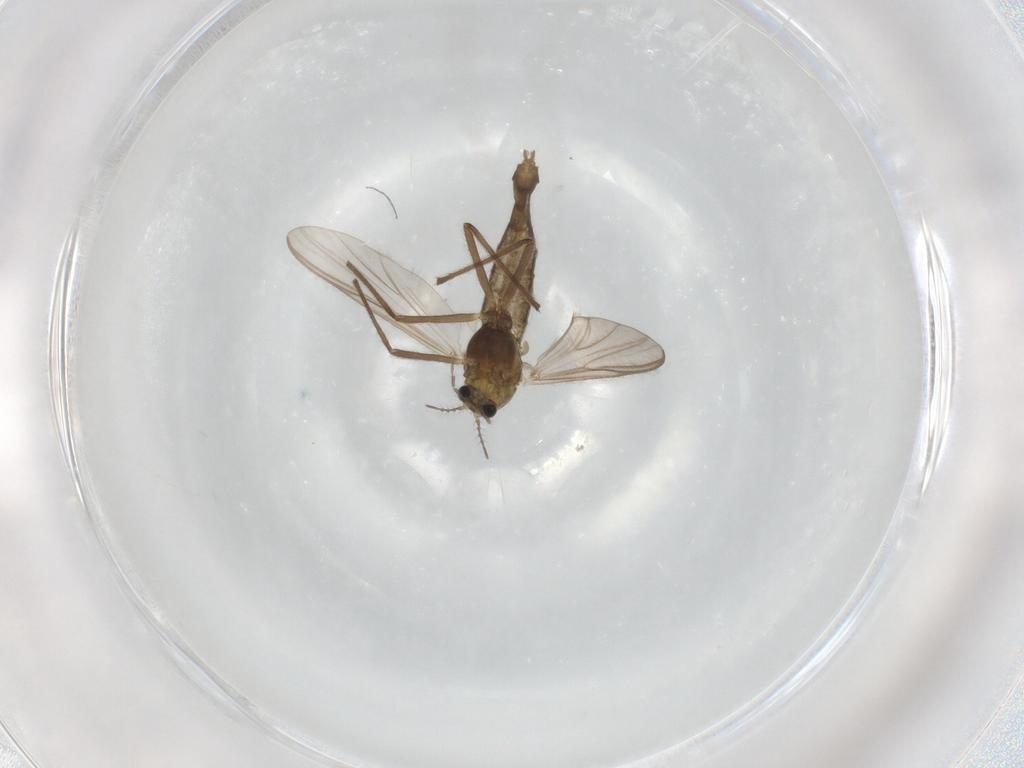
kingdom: Animalia
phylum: Arthropoda
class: Insecta
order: Diptera
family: Chironomidae
